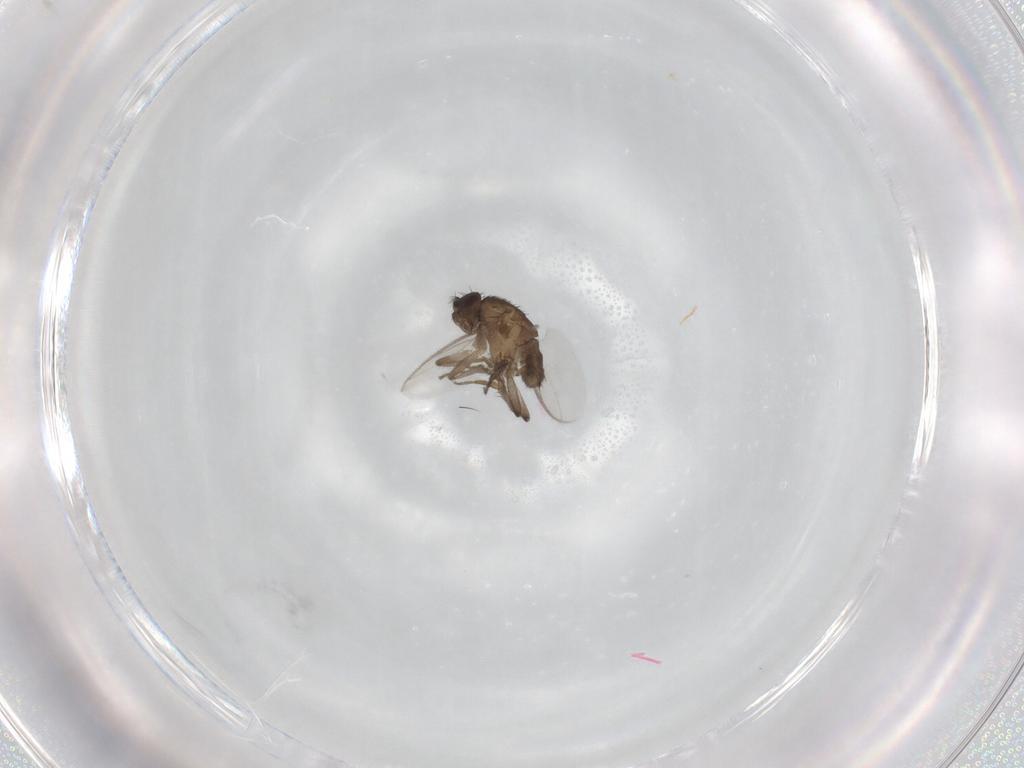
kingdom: Animalia
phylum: Arthropoda
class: Insecta
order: Diptera
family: Sphaeroceridae
